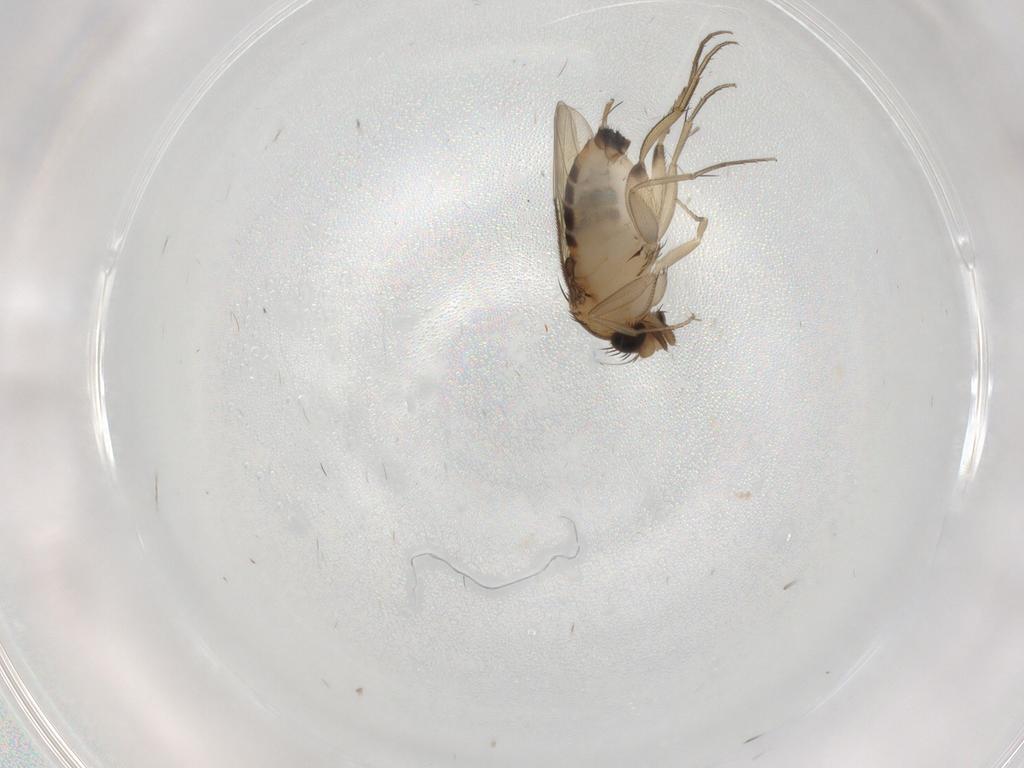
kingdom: Animalia
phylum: Arthropoda
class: Insecta
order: Diptera
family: Phoridae
